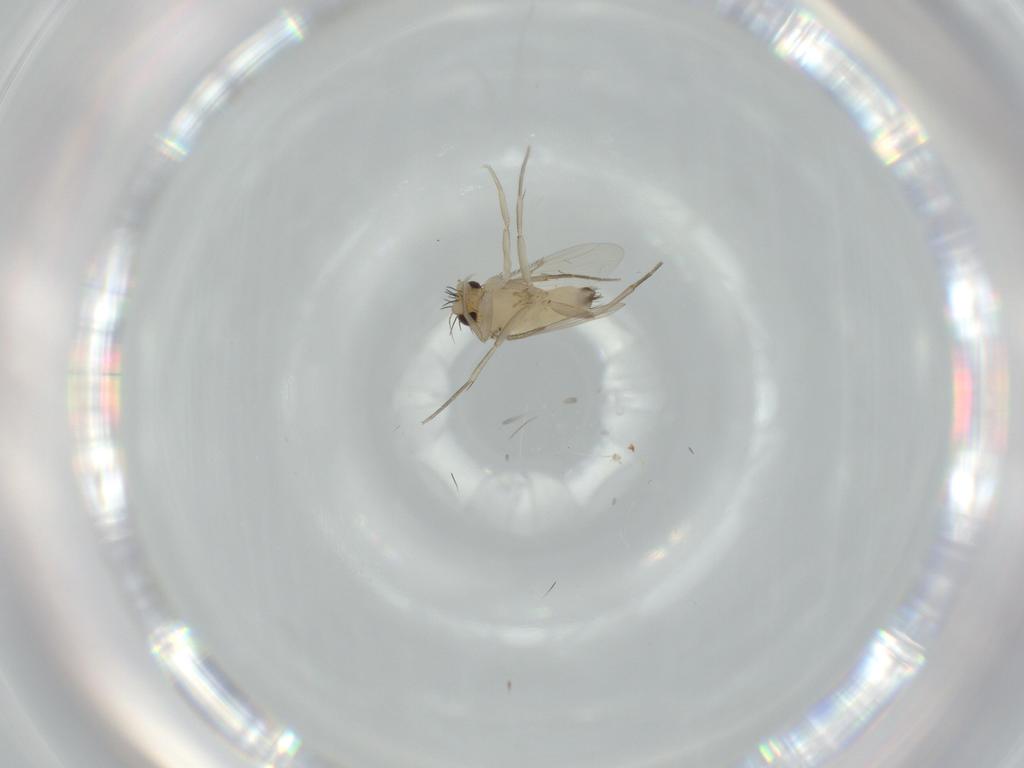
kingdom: Animalia
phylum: Arthropoda
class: Insecta
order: Diptera
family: Phoridae
